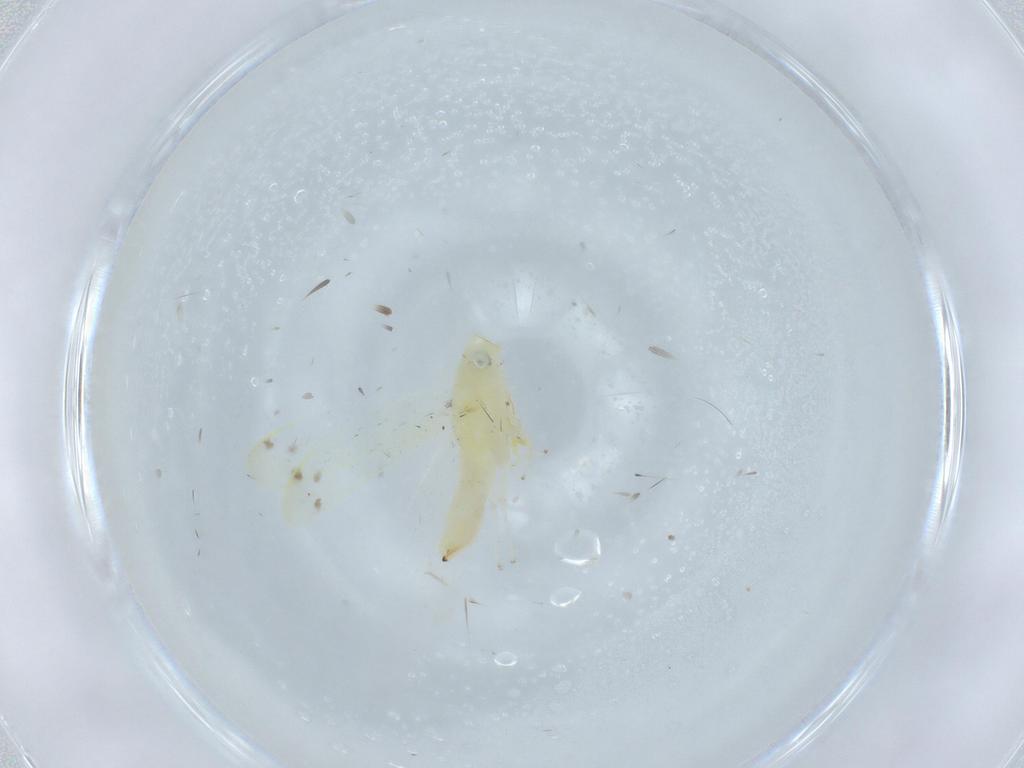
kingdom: Animalia
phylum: Arthropoda
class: Insecta
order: Hemiptera
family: Cicadellidae
